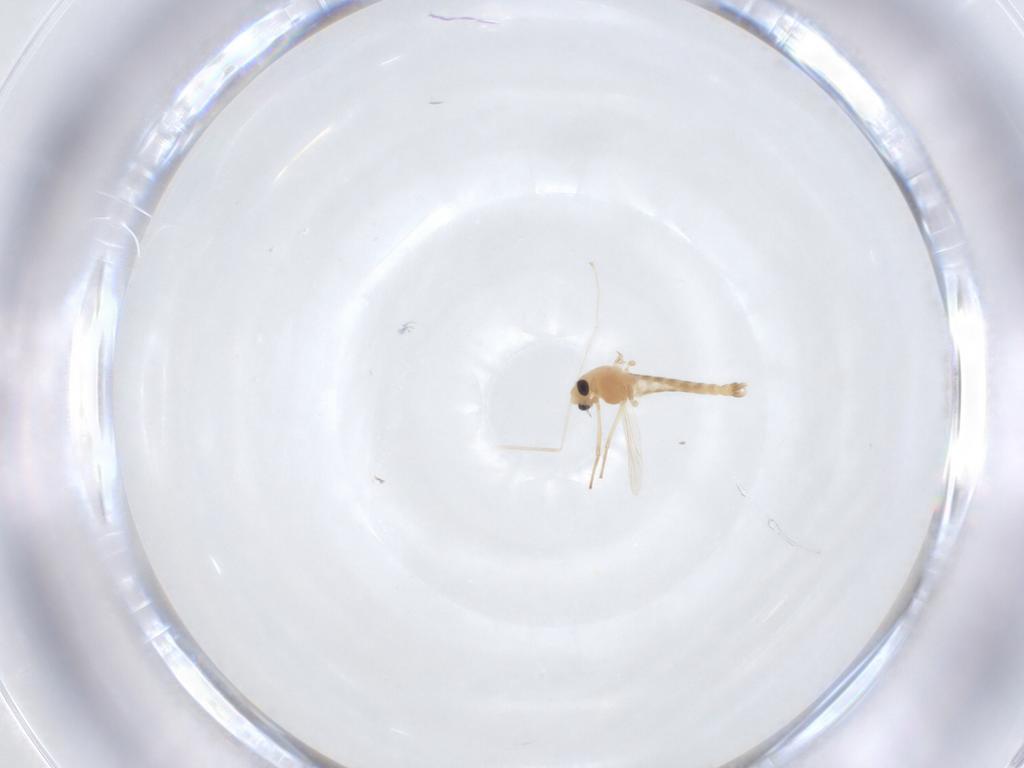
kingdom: Animalia
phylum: Arthropoda
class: Insecta
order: Diptera
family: Chironomidae
